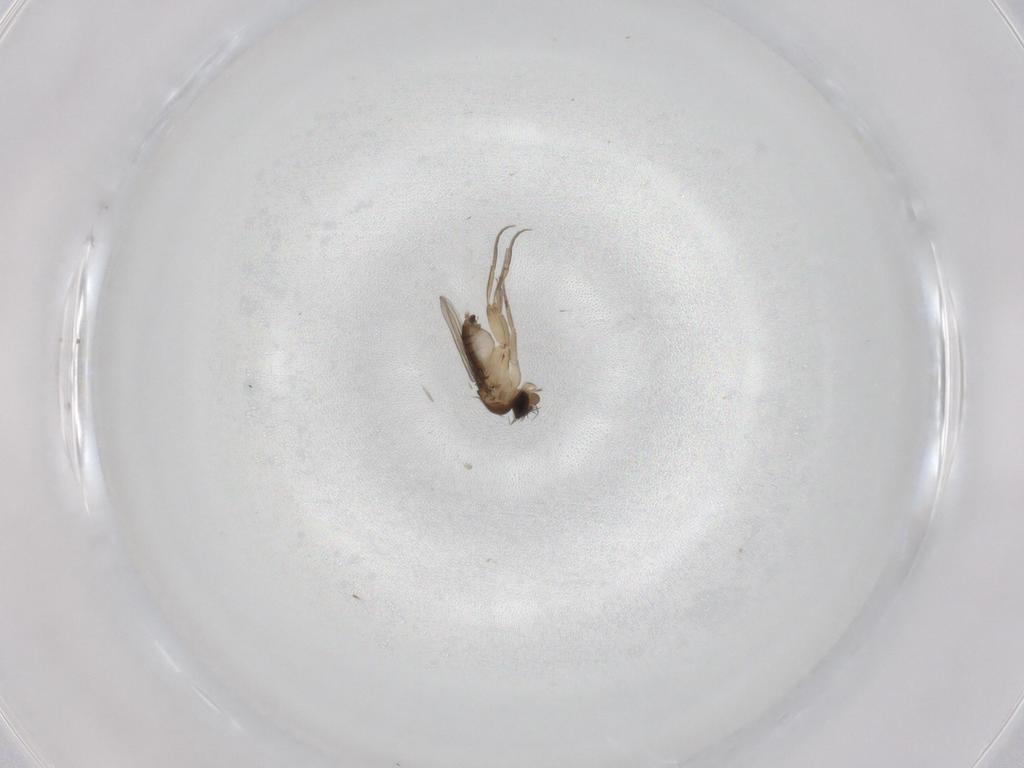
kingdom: Animalia
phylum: Arthropoda
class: Insecta
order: Diptera
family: Phoridae
